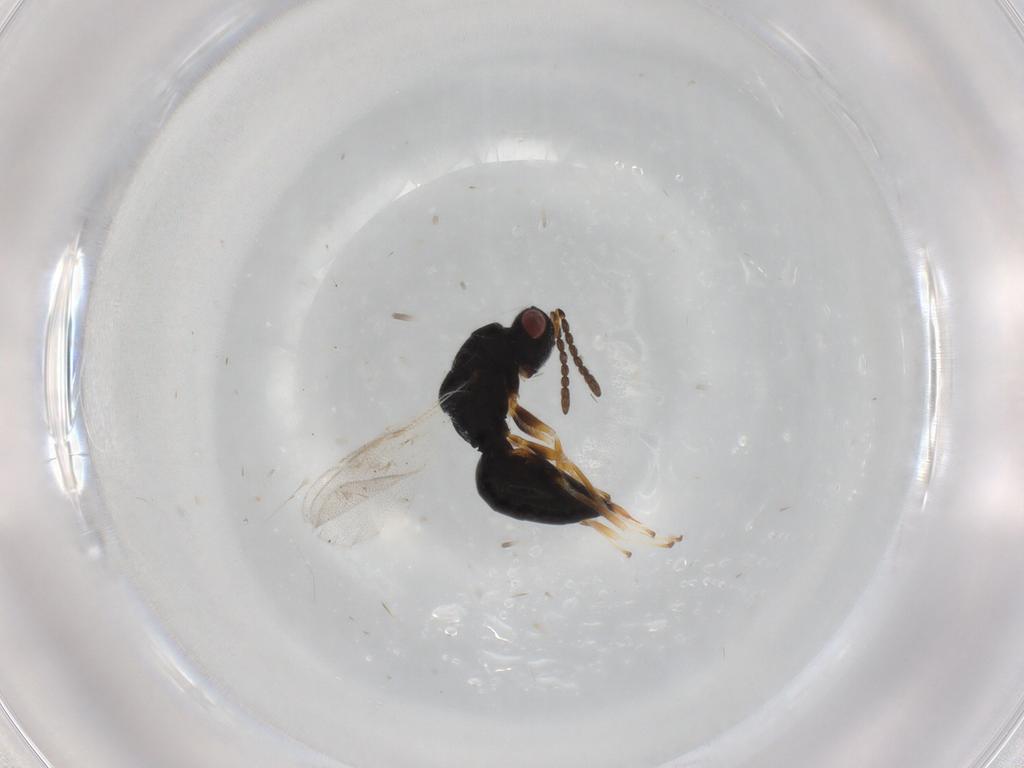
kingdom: Animalia
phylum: Arthropoda
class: Insecta
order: Hymenoptera
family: Eurytomidae
